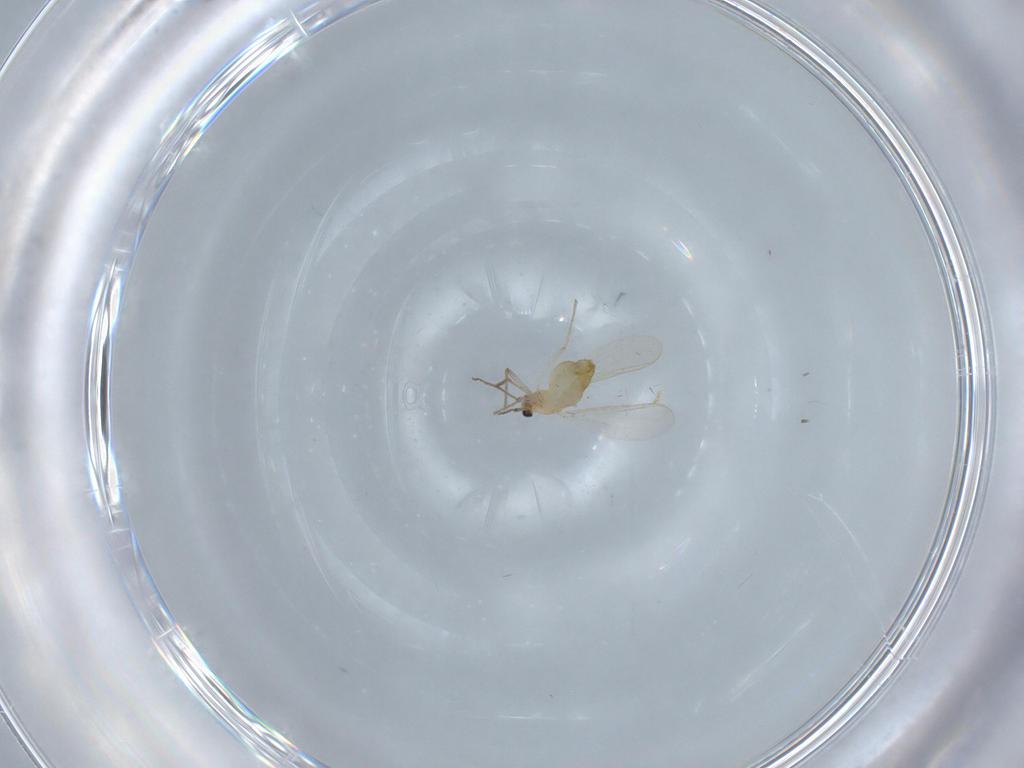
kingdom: Animalia
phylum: Arthropoda
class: Insecta
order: Diptera
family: Chironomidae
